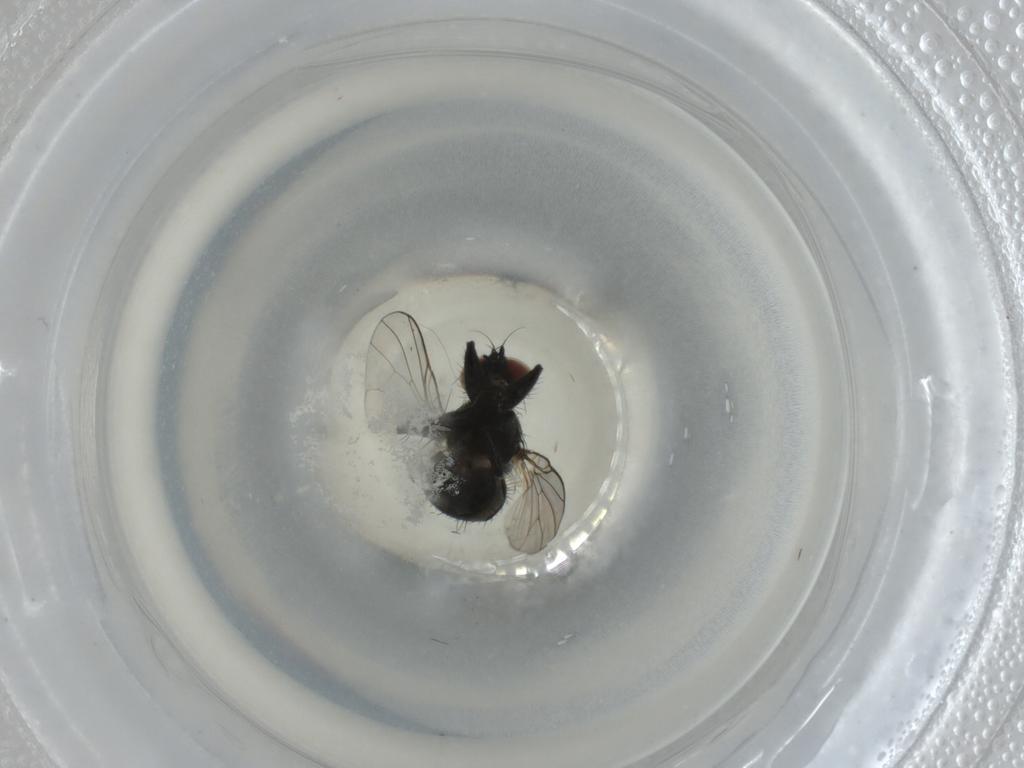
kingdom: Animalia
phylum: Arthropoda
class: Insecta
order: Diptera
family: Muscidae
